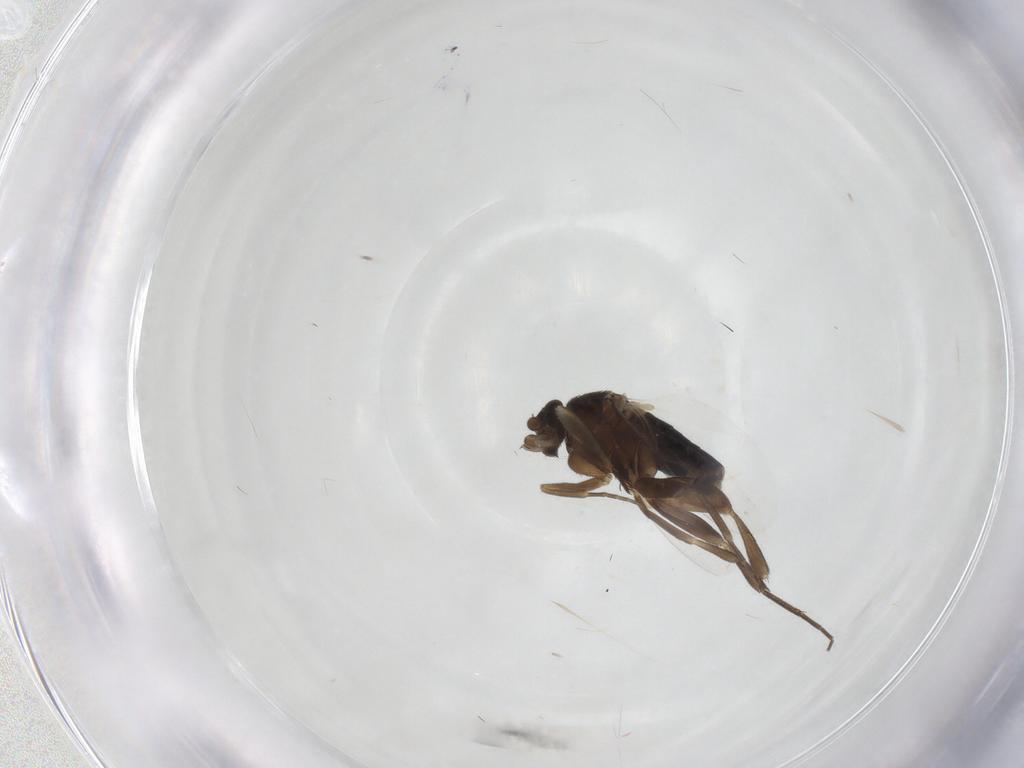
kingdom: Animalia
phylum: Arthropoda
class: Insecta
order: Diptera
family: Phoridae
